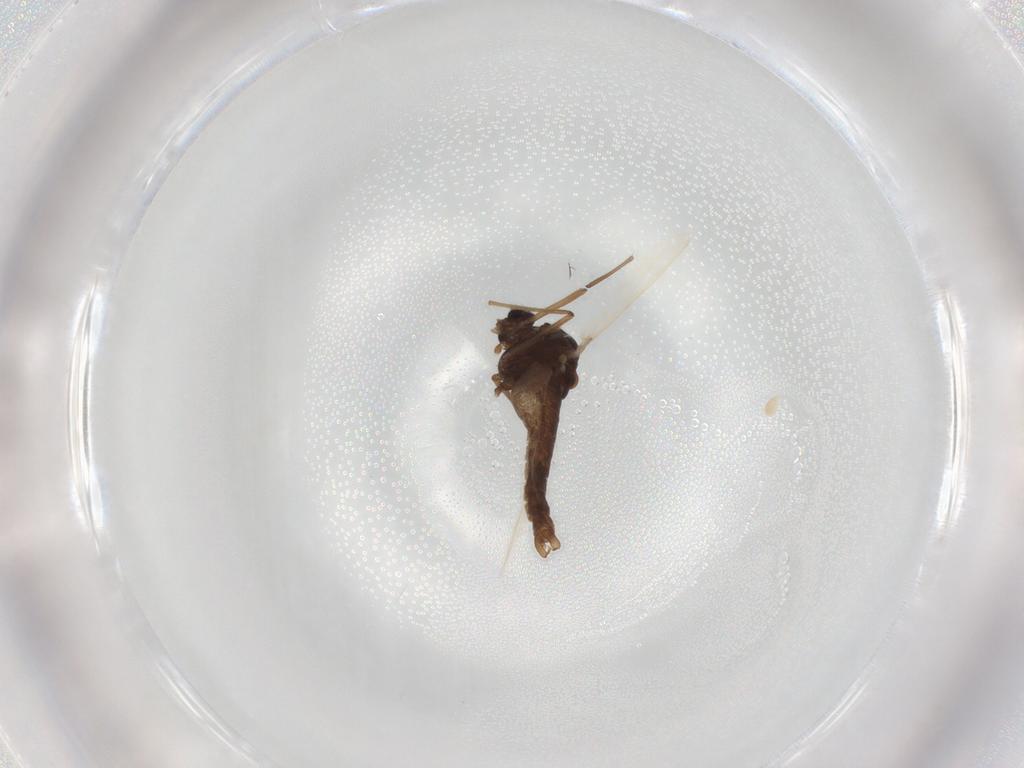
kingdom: Animalia
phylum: Arthropoda
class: Insecta
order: Diptera
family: Chironomidae
